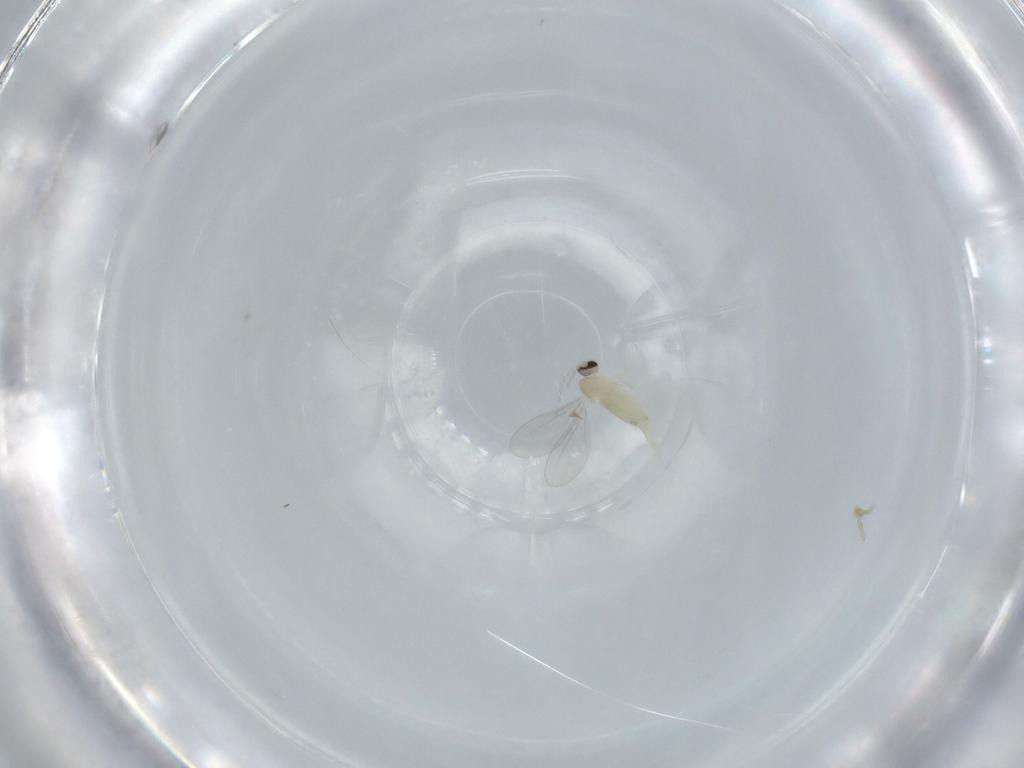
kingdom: Animalia
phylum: Arthropoda
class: Insecta
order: Diptera
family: Cecidomyiidae
